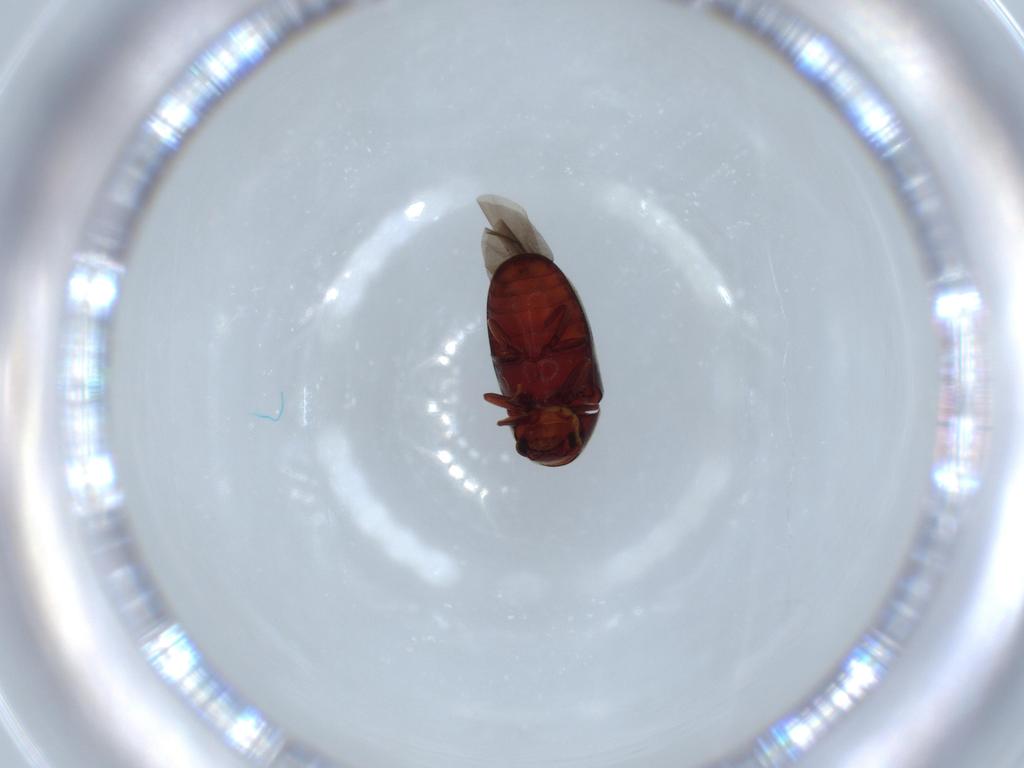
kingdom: Animalia
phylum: Arthropoda
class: Insecta
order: Coleoptera
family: Ptinidae
